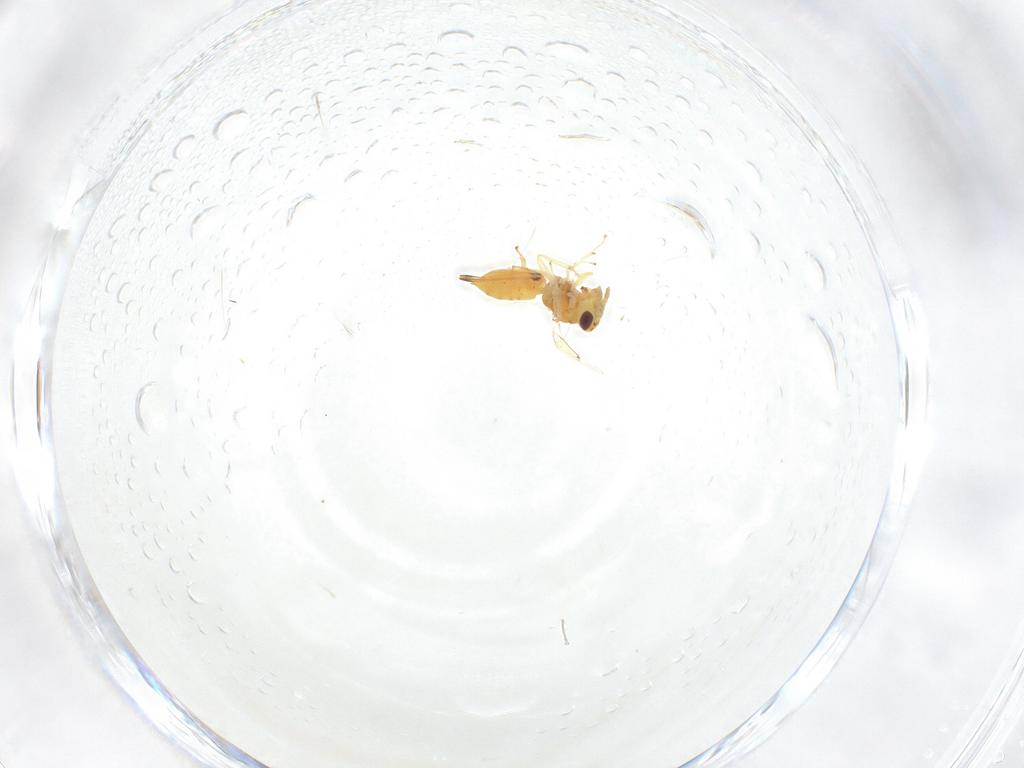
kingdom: Animalia
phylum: Arthropoda
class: Insecta
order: Hymenoptera
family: Eulophidae
